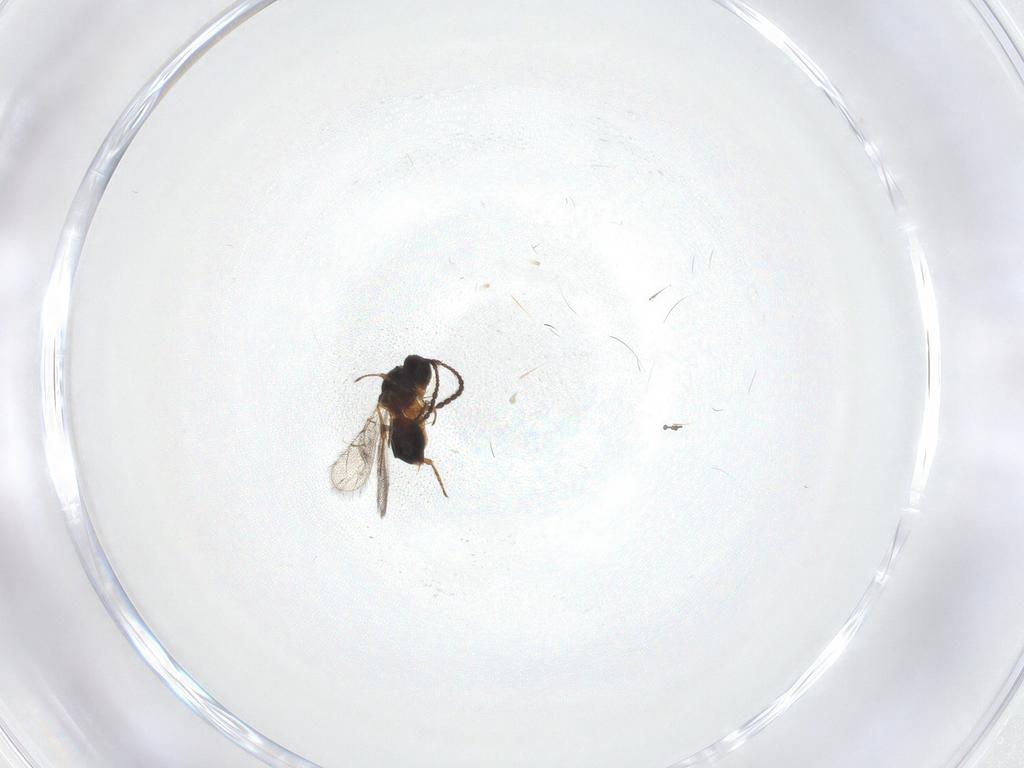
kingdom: Animalia
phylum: Arthropoda
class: Insecta
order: Hymenoptera
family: Figitidae
